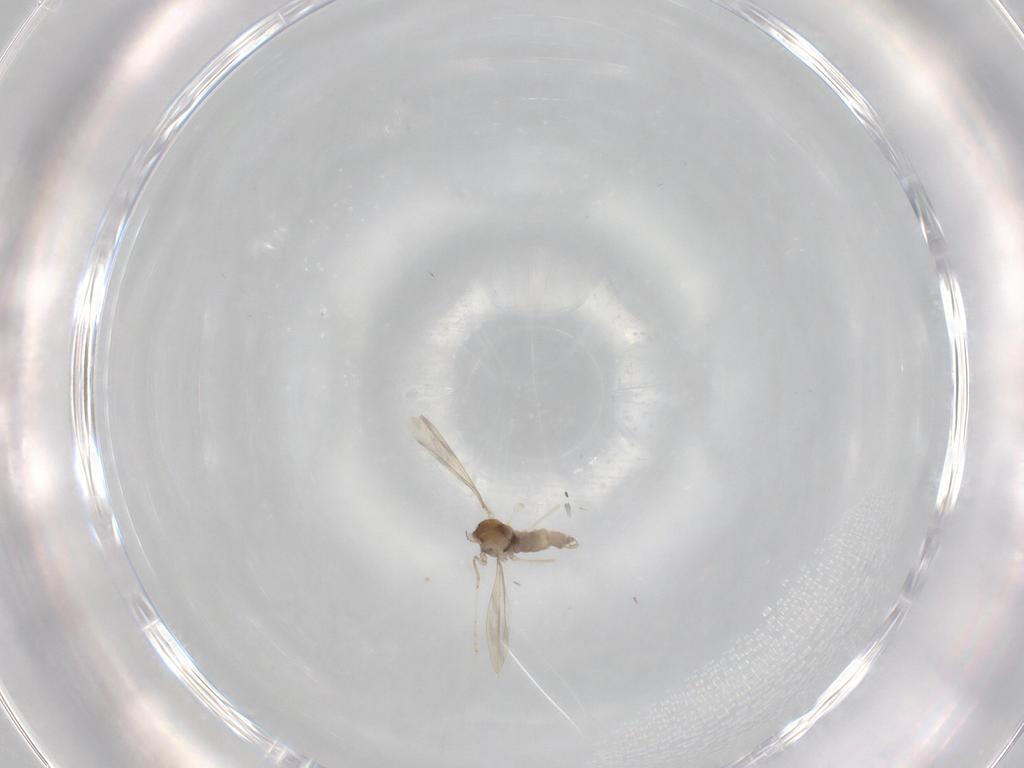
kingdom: Animalia
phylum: Arthropoda
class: Insecta
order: Diptera
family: Cecidomyiidae
